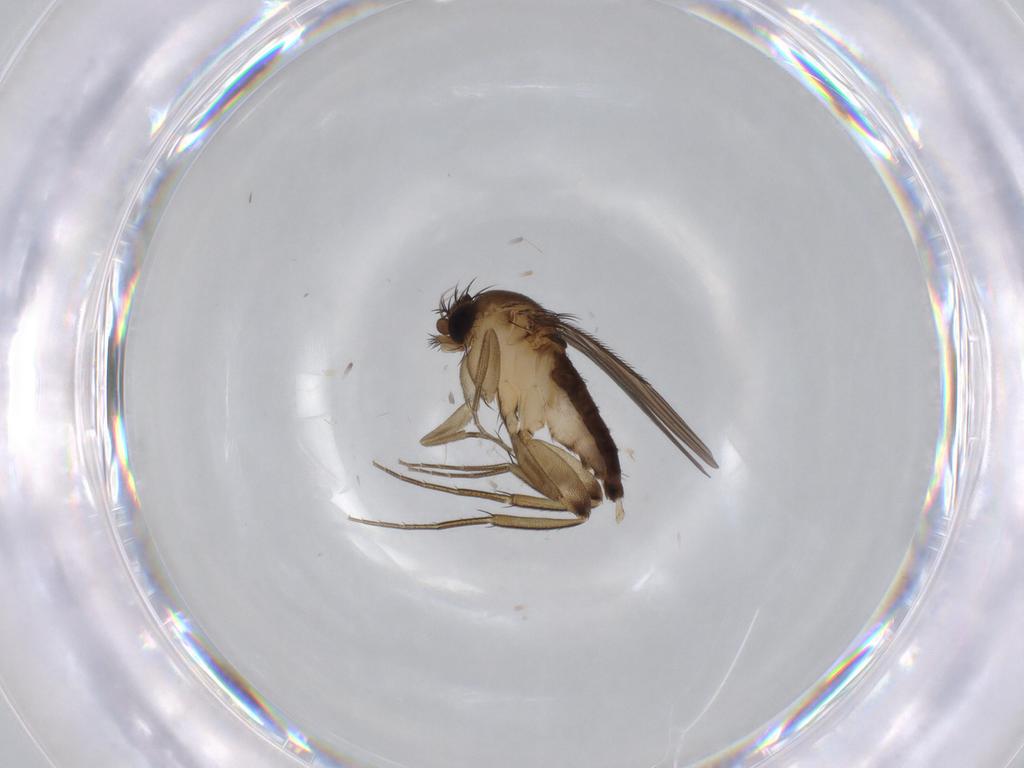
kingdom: Animalia
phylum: Arthropoda
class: Insecta
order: Diptera
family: Phoridae
